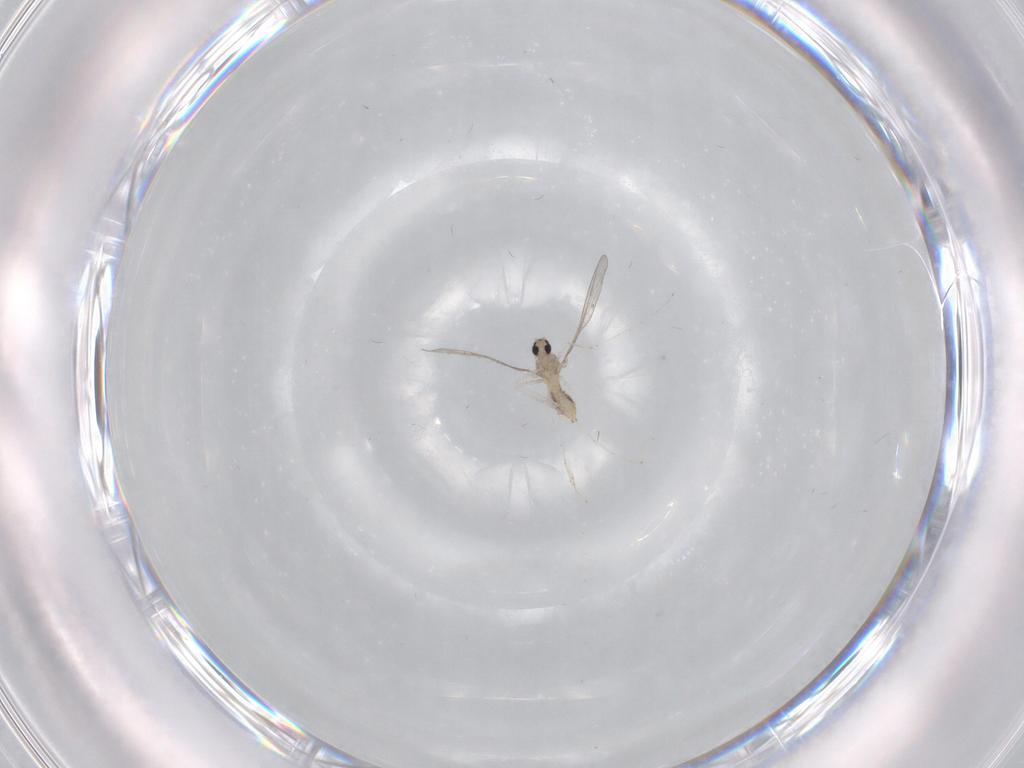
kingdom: Animalia
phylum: Arthropoda
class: Insecta
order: Diptera
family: Cecidomyiidae
